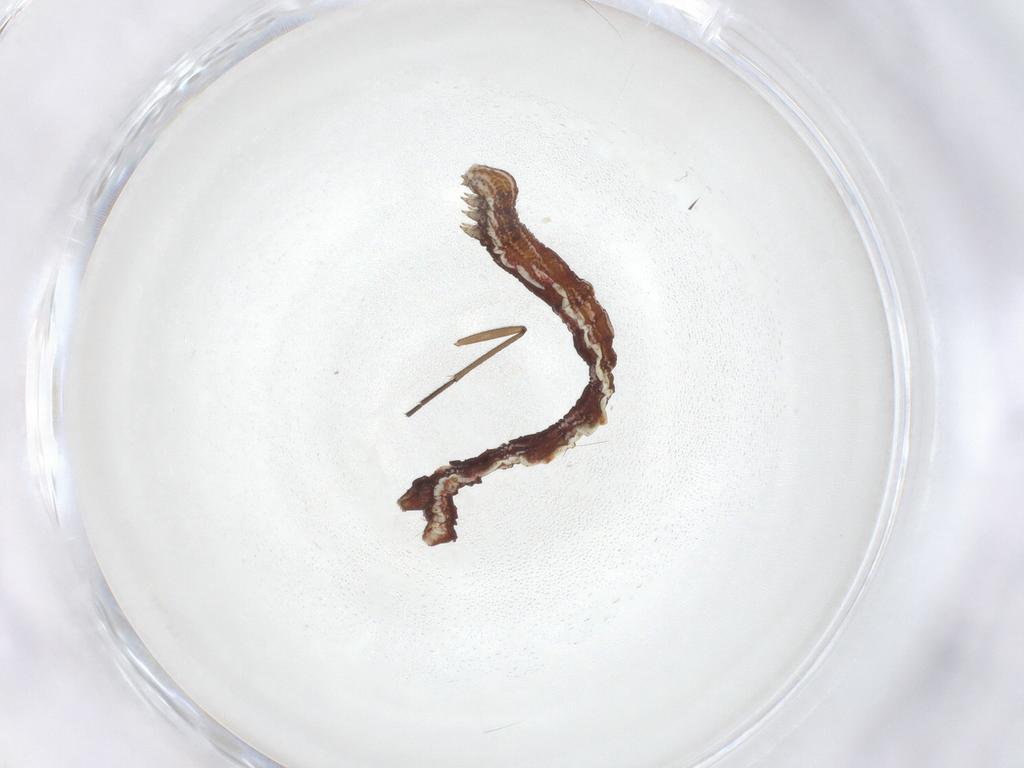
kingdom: Animalia
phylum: Arthropoda
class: Insecta
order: Lepidoptera
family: Geometridae
